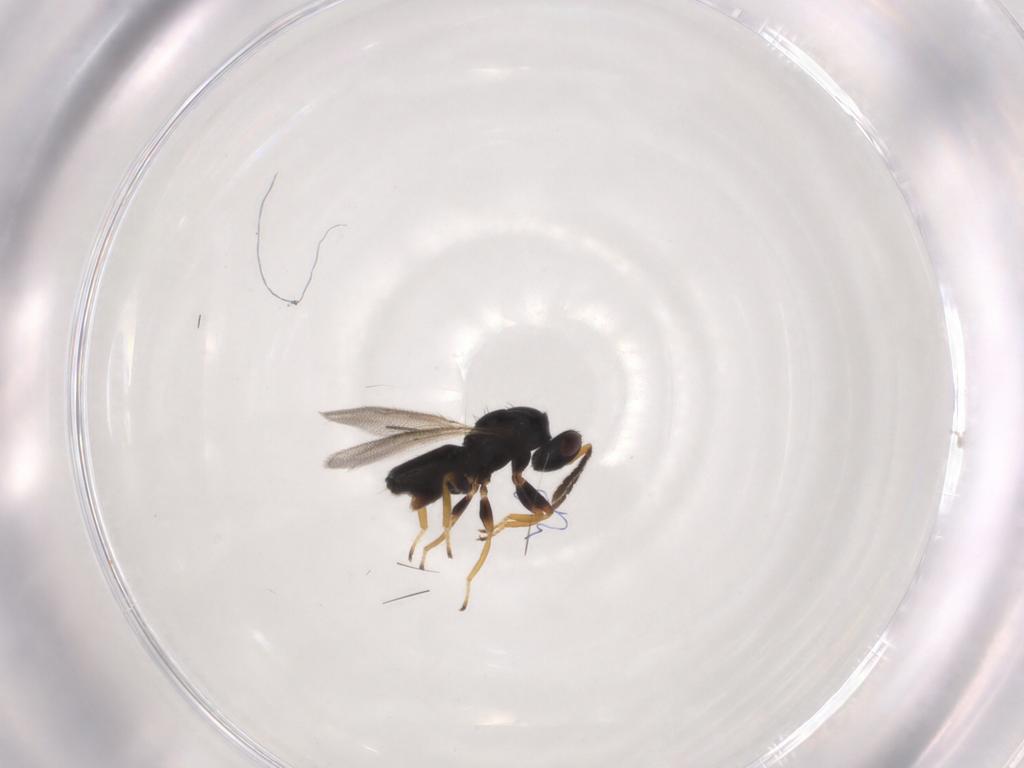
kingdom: Animalia
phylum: Arthropoda
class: Insecta
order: Hymenoptera
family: Eulophidae
